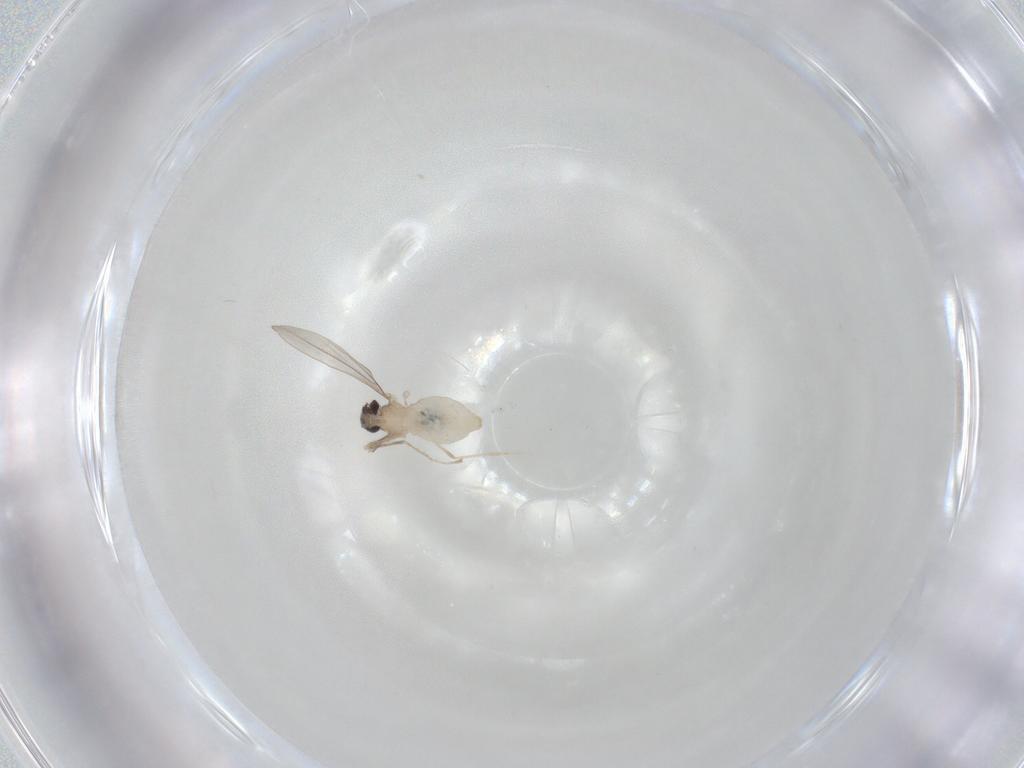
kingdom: Animalia
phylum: Arthropoda
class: Insecta
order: Diptera
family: Cecidomyiidae
